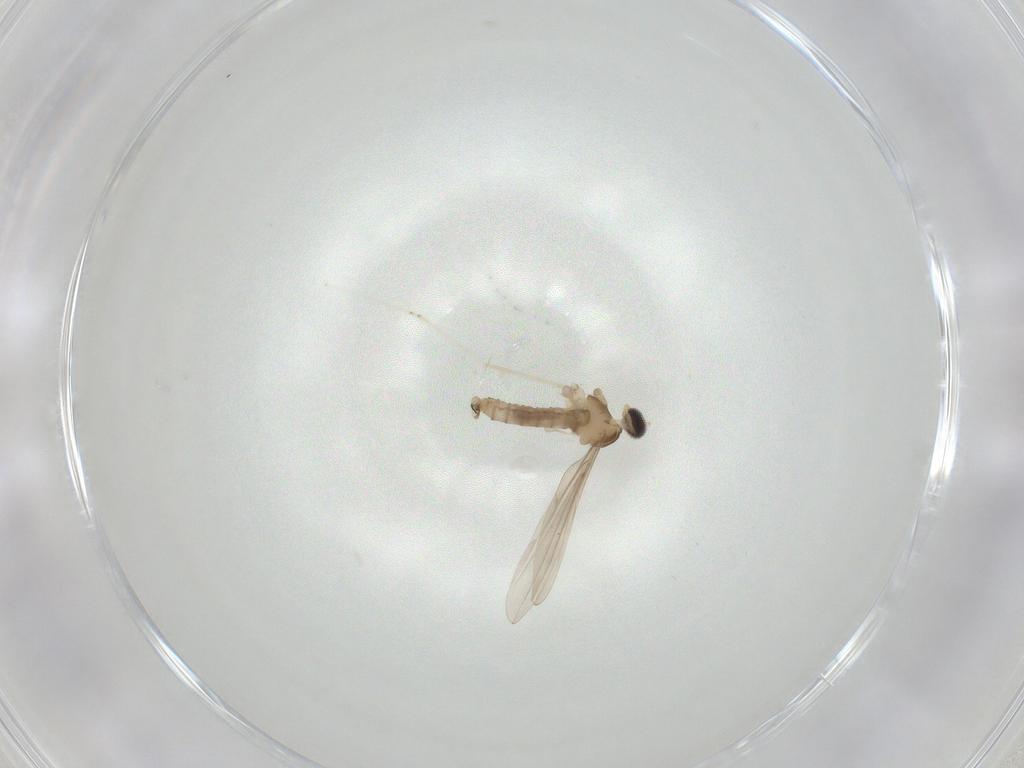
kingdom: Animalia
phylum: Arthropoda
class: Insecta
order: Diptera
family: Cecidomyiidae
